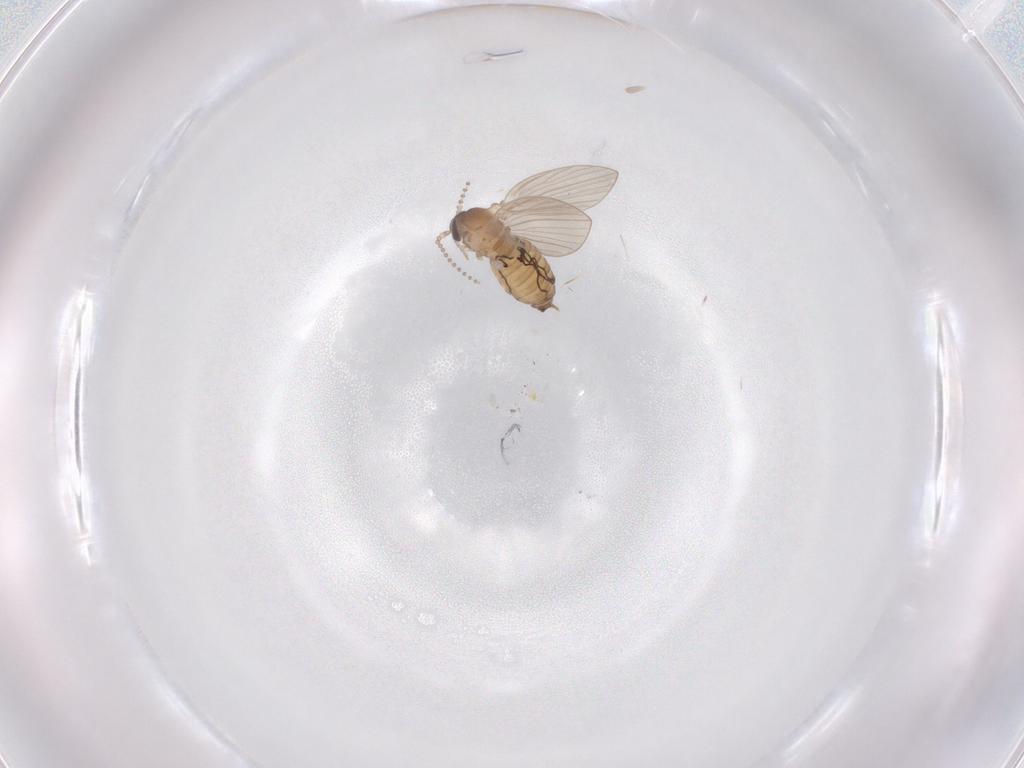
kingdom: Animalia
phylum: Arthropoda
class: Insecta
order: Diptera
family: Psychodidae
